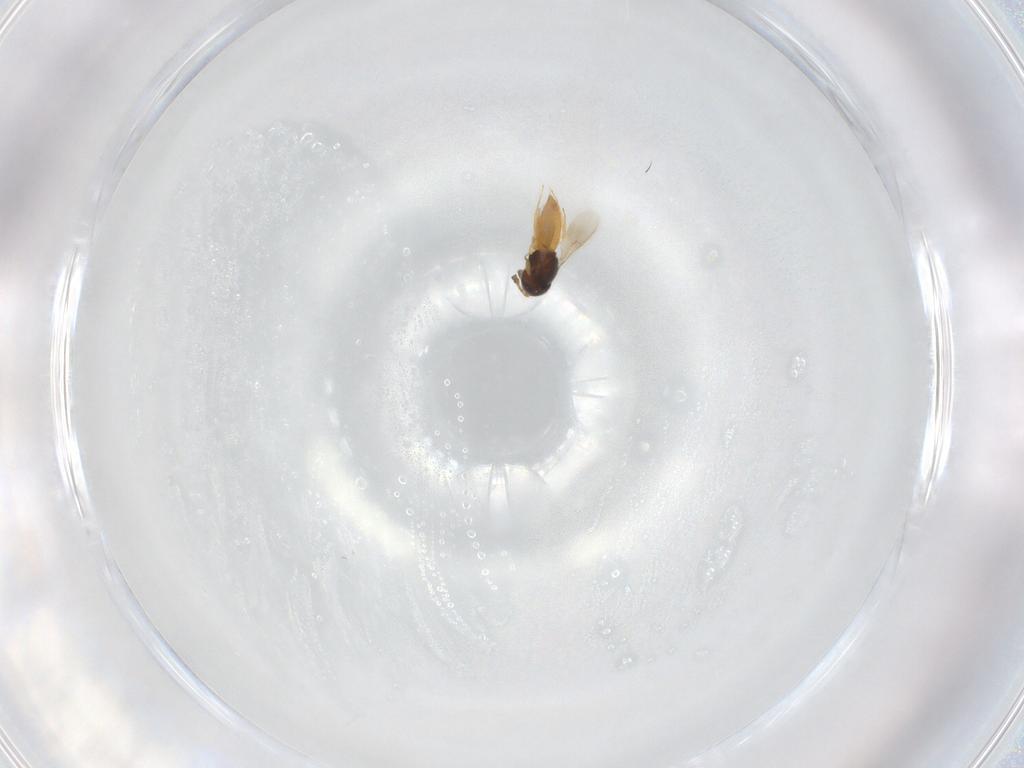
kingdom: Animalia
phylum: Arthropoda
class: Insecta
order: Hymenoptera
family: Scelionidae
